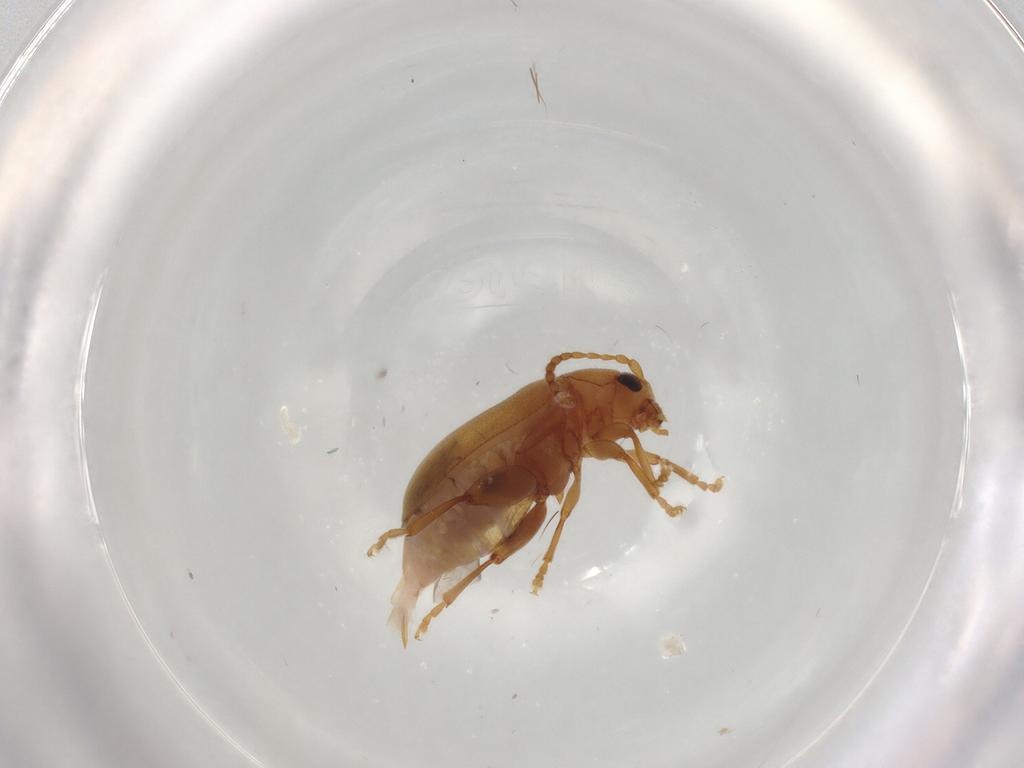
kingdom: Animalia
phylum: Arthropoda
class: Insecta
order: Coleoptera
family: Chrysomelidae
